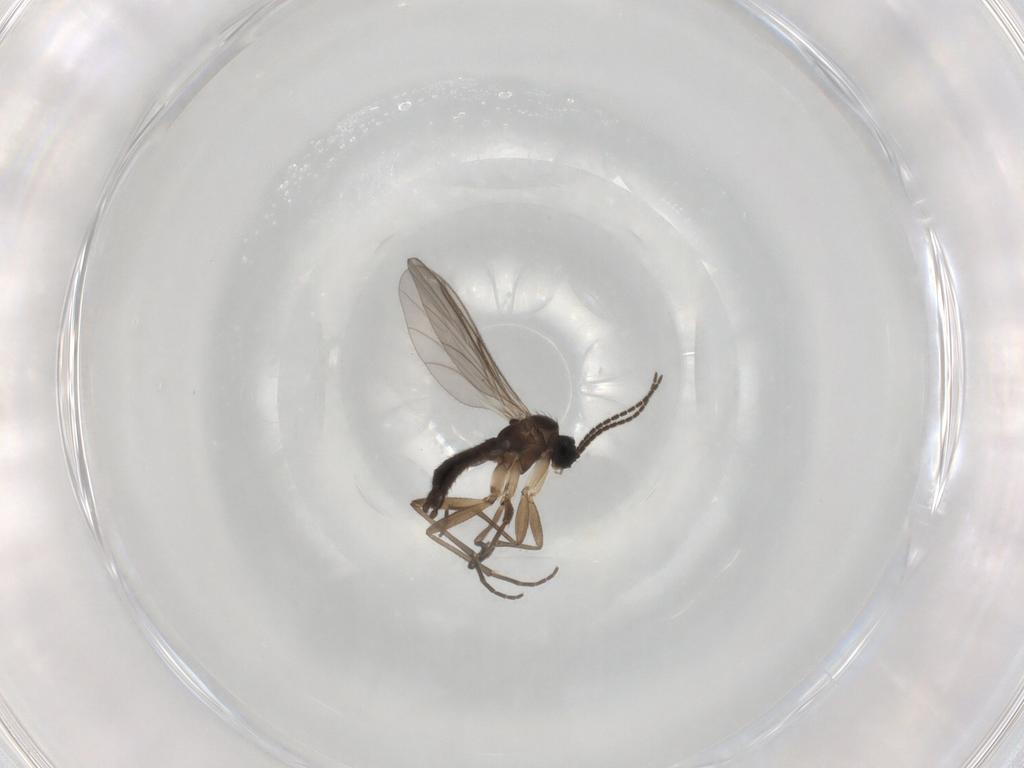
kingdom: Animalia
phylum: Arthropoda
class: Insecta
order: Diptera
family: Sciaridae
